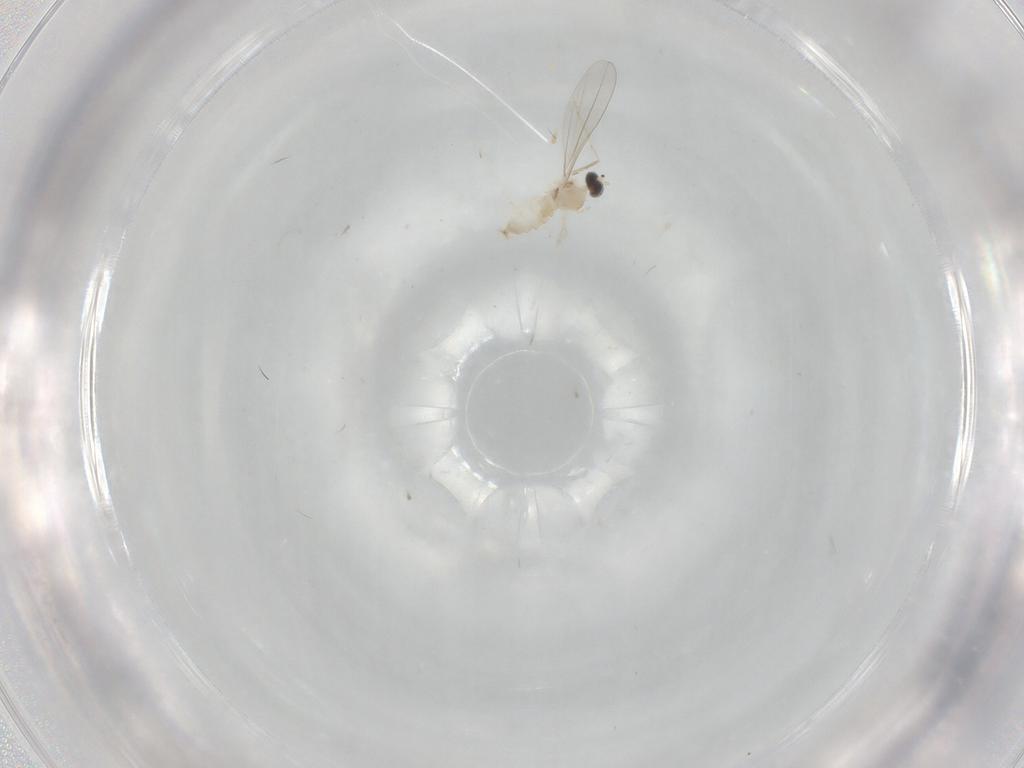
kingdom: Animalia
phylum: Arthropoda
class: Insecta
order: Diptera
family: Cecidomyiidae
